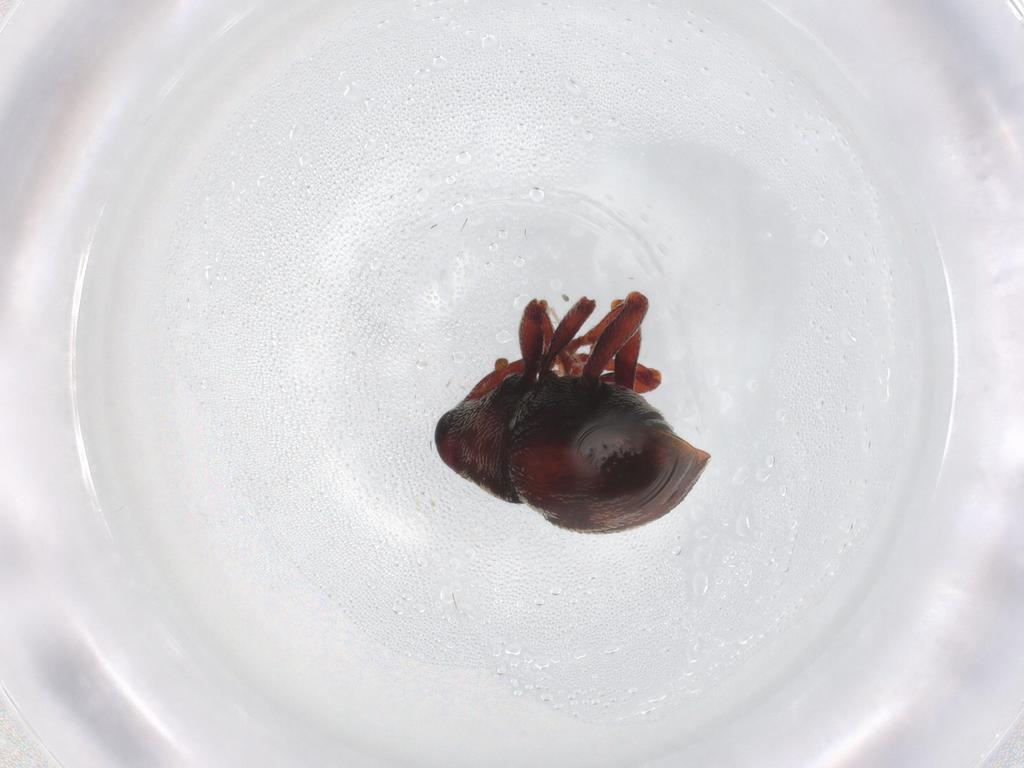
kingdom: Animalia
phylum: Arthropoda
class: Insecta
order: Coleoptera
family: Curculionidae
